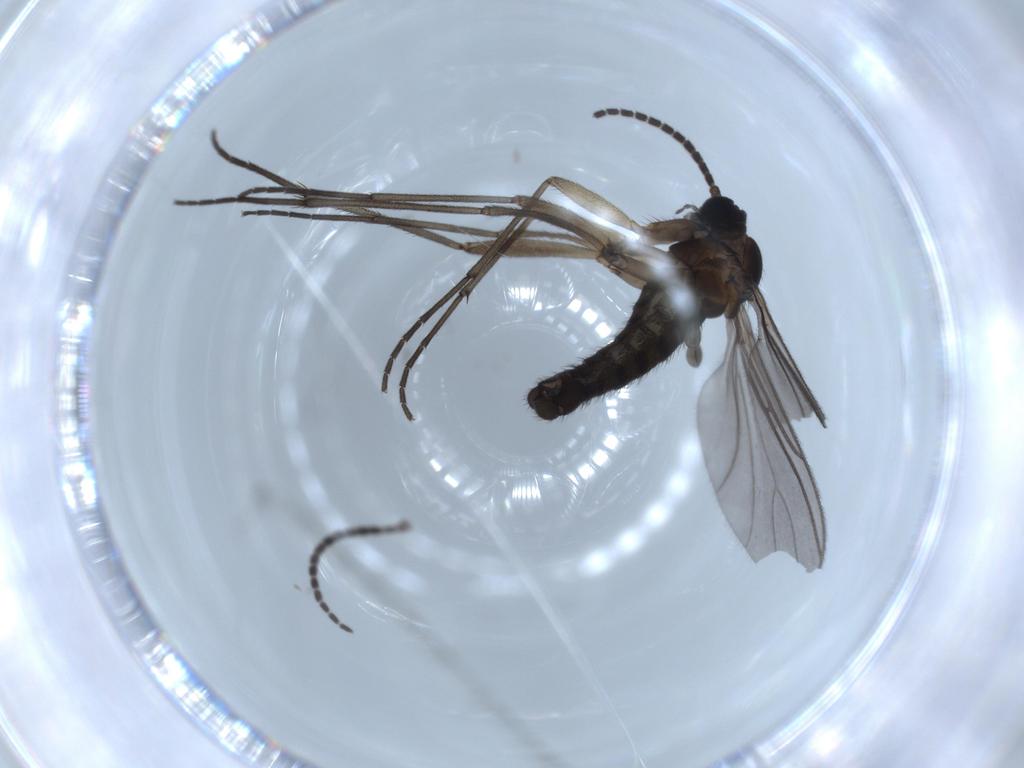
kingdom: Animalia
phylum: Arthropoda
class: Insecta
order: Diptera
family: Sciaridae
